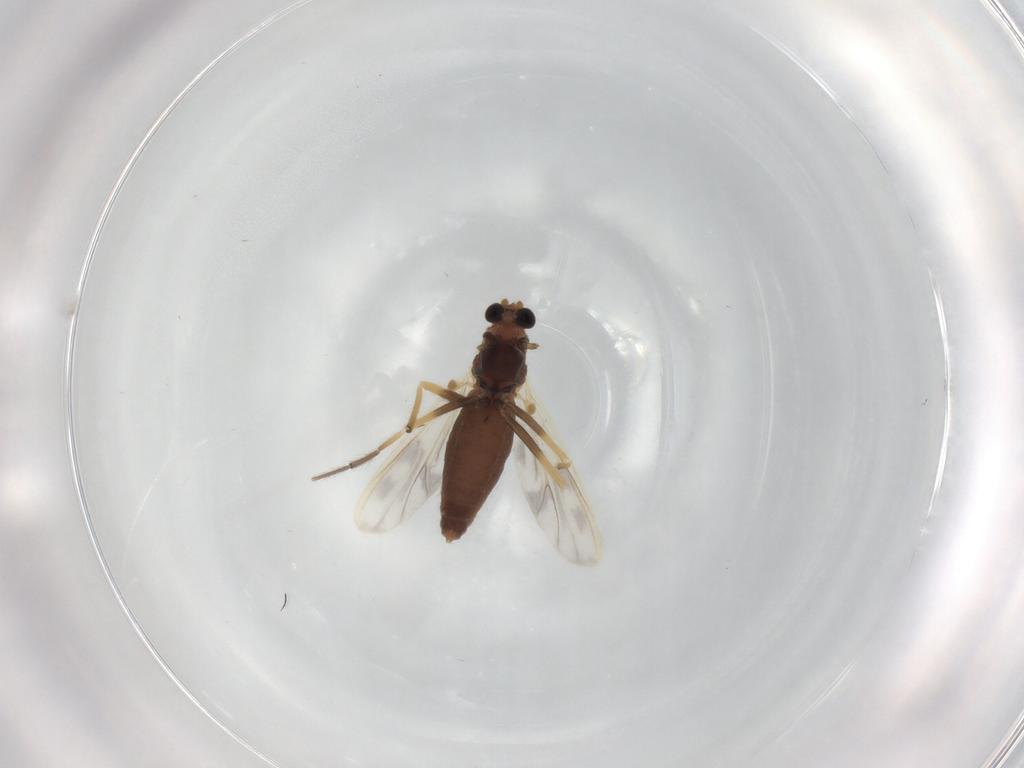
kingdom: Animalia
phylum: Arthropoda
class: Insecta
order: Diptera
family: Chironomidae
